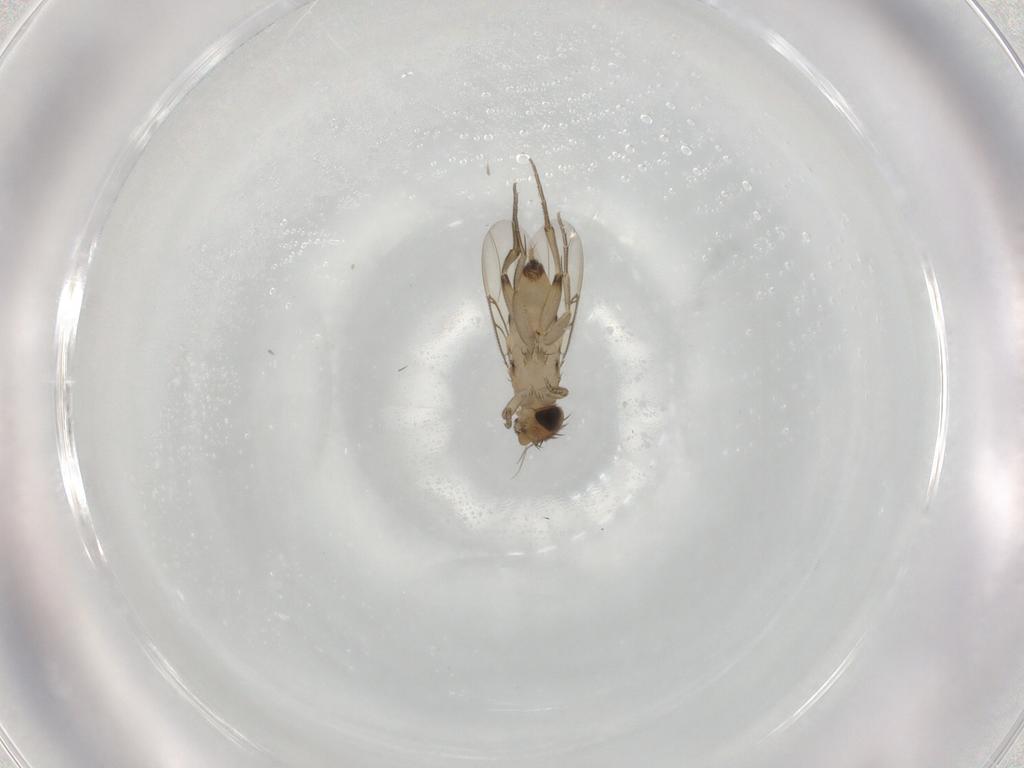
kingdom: Animalia
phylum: Arthropoda
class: Insecta
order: Diptera
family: Phoridae
